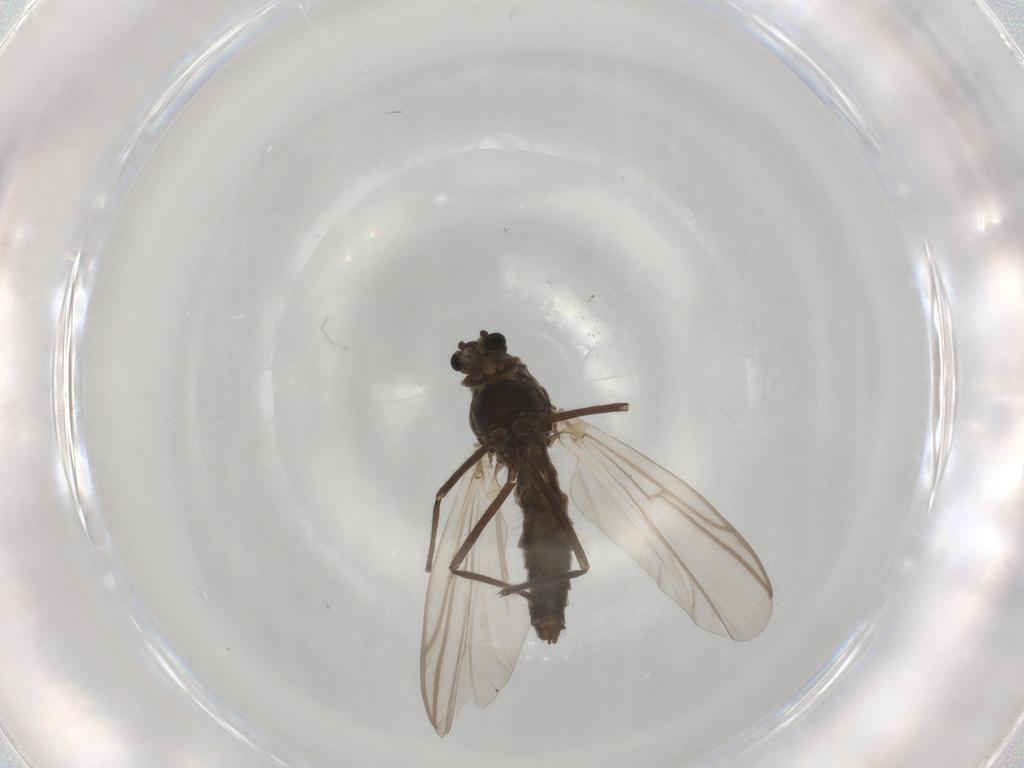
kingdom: Animalia
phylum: Arthropoda
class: Insecta
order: Diptera
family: Chironomidae
